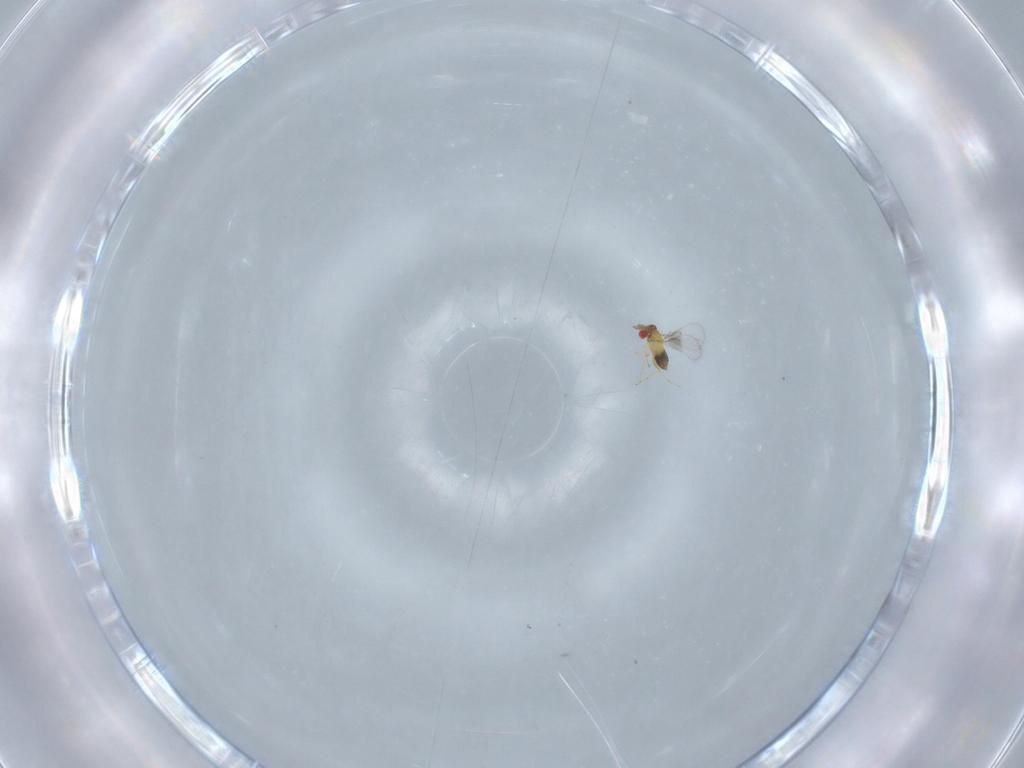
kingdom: Animalia
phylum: Arthropoda
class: Insecta
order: Hymenoptera
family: Trichogrammatidae
